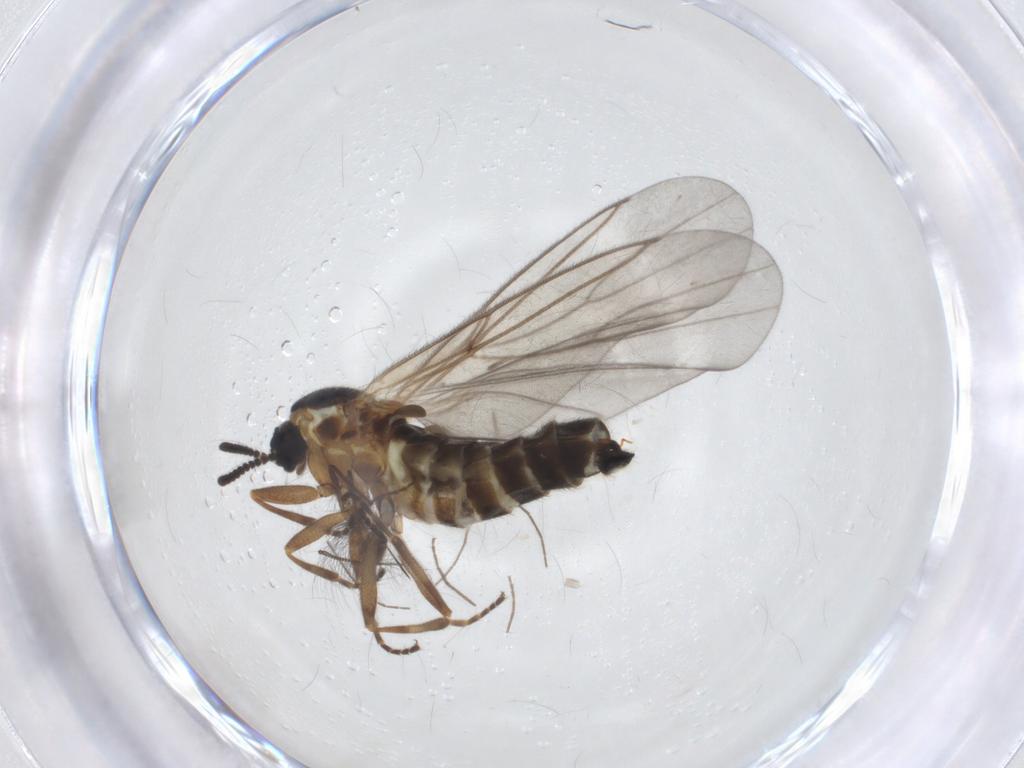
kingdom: Animalia
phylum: Arthropoda
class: Insecta
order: Diptera
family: Scatopsidae
